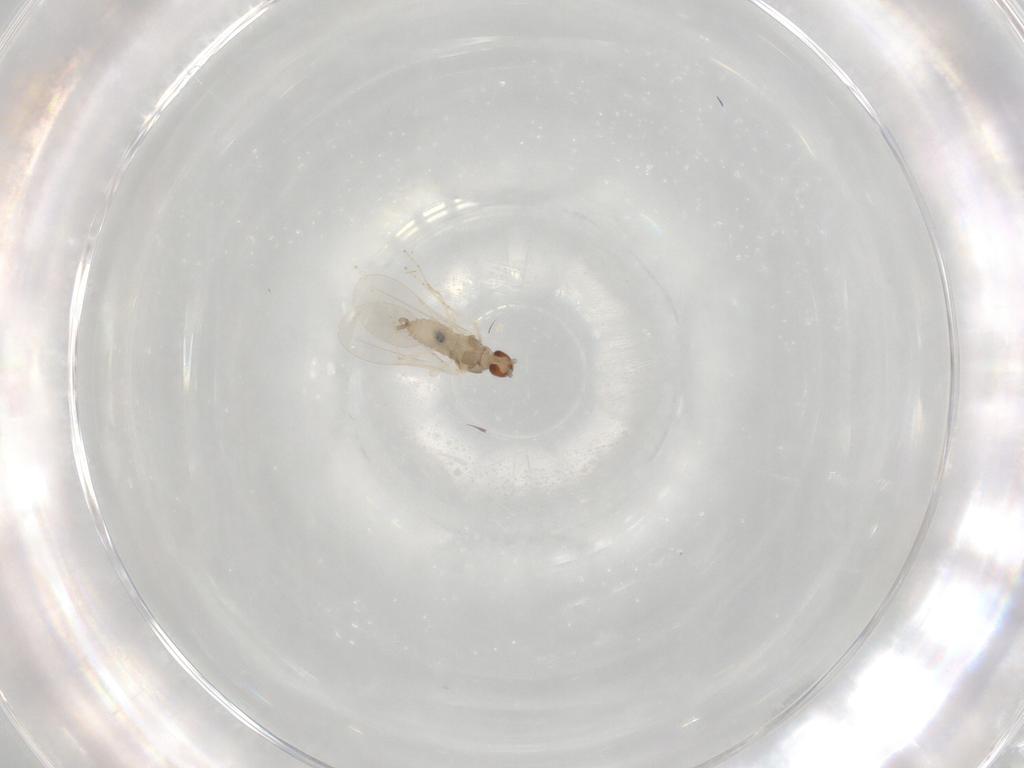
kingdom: Animalia
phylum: Arthropoda
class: Insecta
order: Diptera
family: Cecidomyiidae
